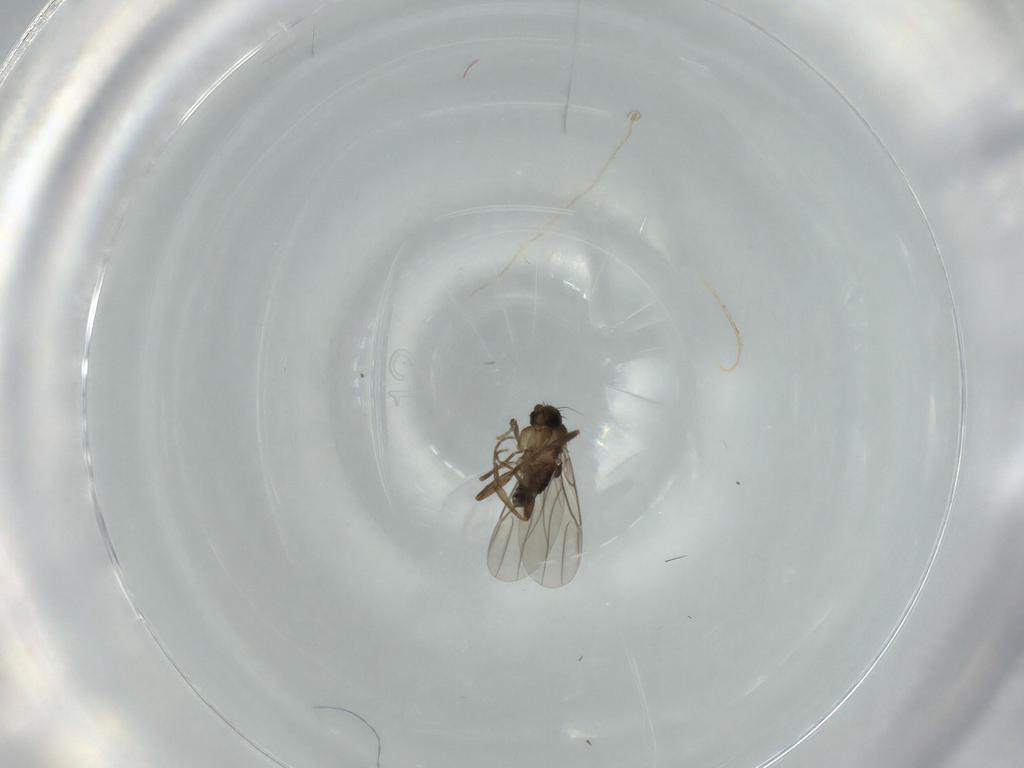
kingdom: Animalia
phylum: Arthropoda
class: Insecta
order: Diptera
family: Phoridae
